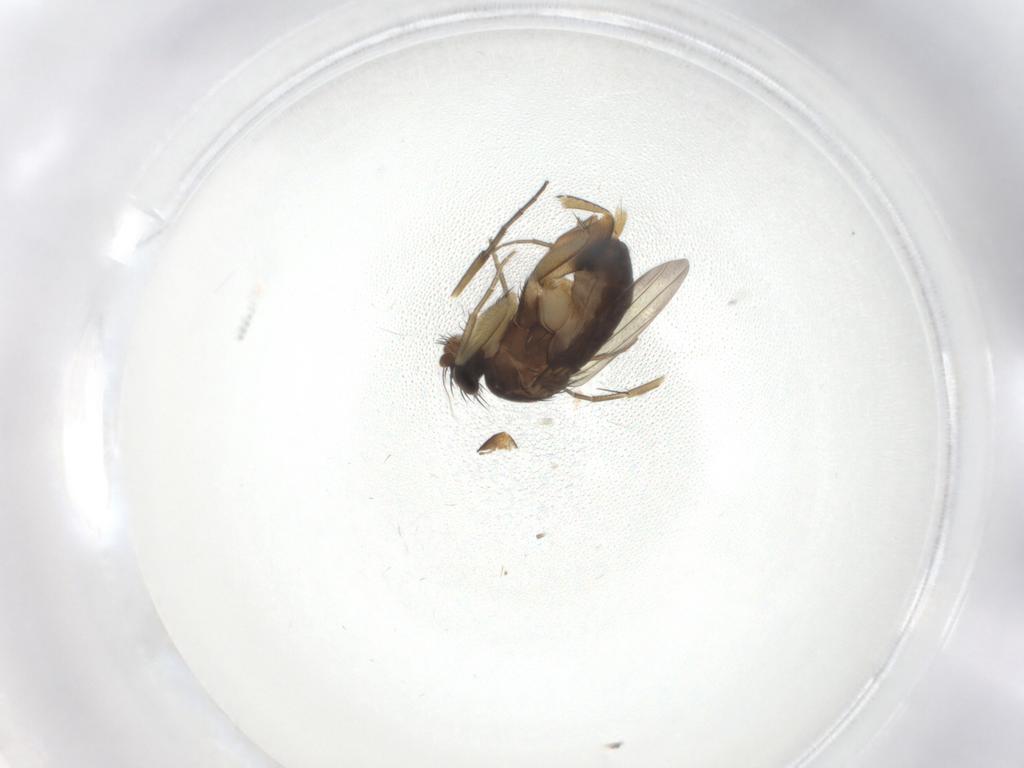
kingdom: Animalia
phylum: Arthropoda
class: Insecta
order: Diptera
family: Phoridae
